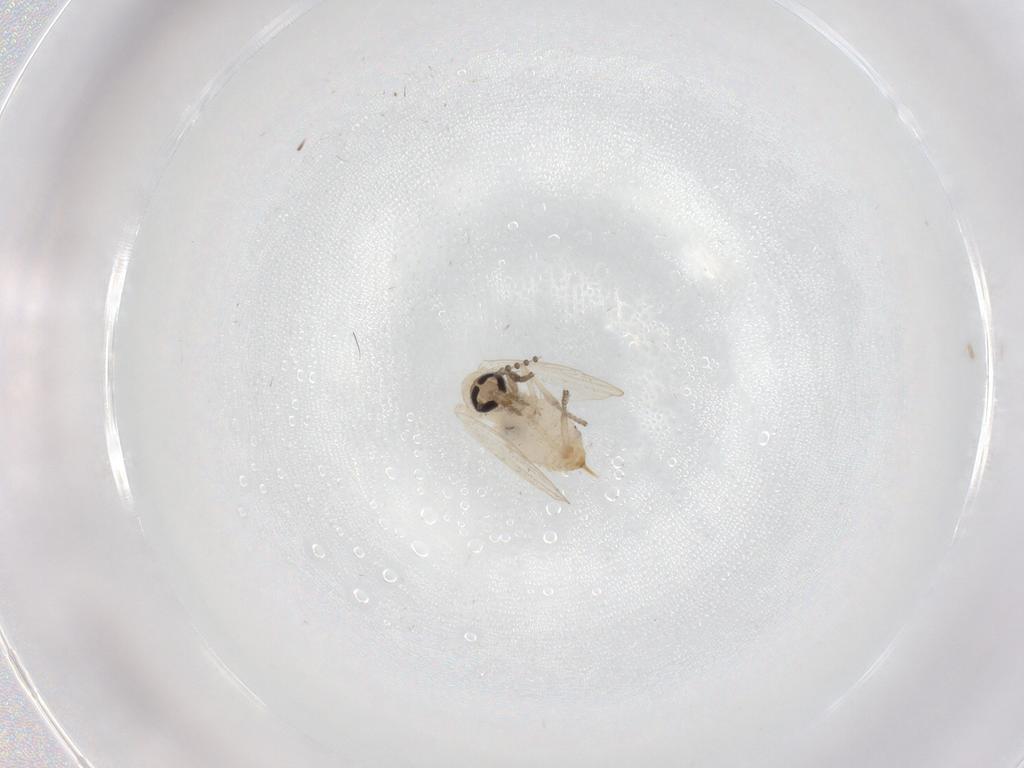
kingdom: Animalia
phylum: Arthropoda
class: Insecta
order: Diptera
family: Psychodidae
